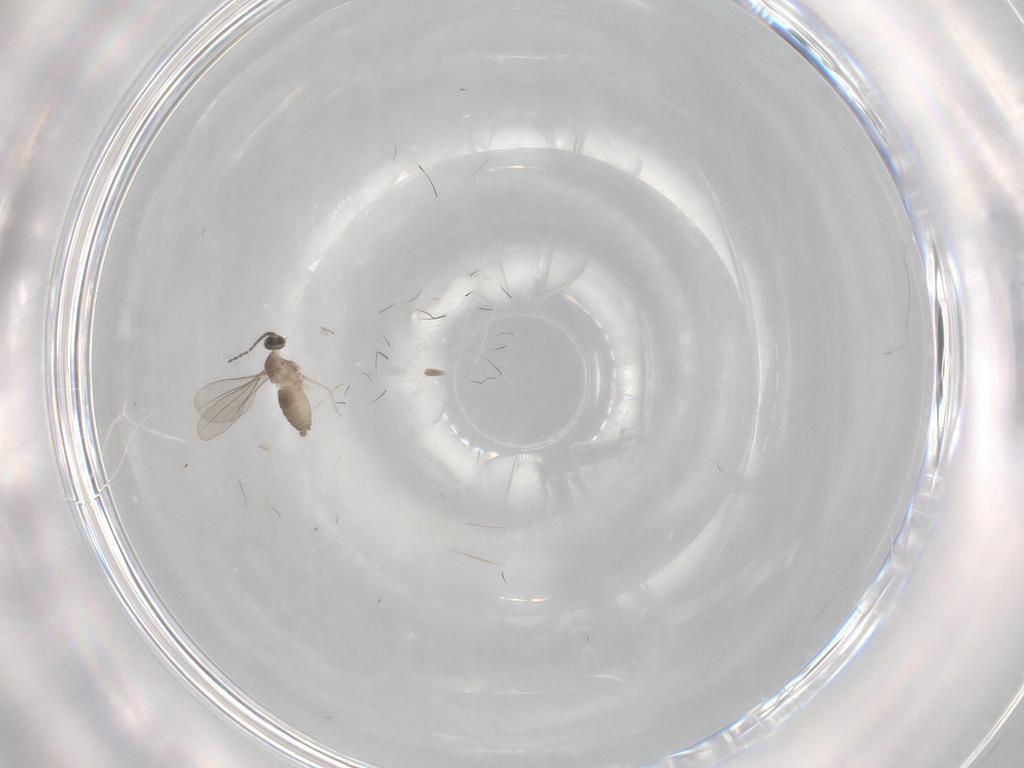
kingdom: Animalia
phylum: Arthropoda
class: Insecta
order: Diptera
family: Cecidomyiidae
